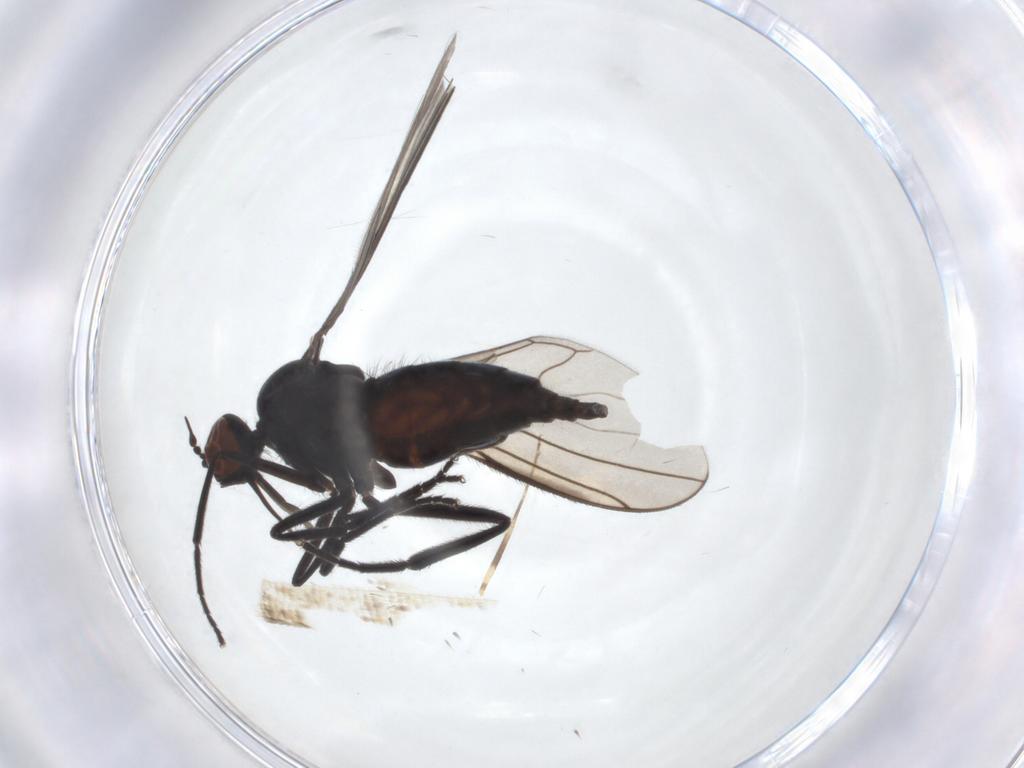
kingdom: Animalia
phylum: Arthropoda
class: Insecta
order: Diptera
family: Empididae
